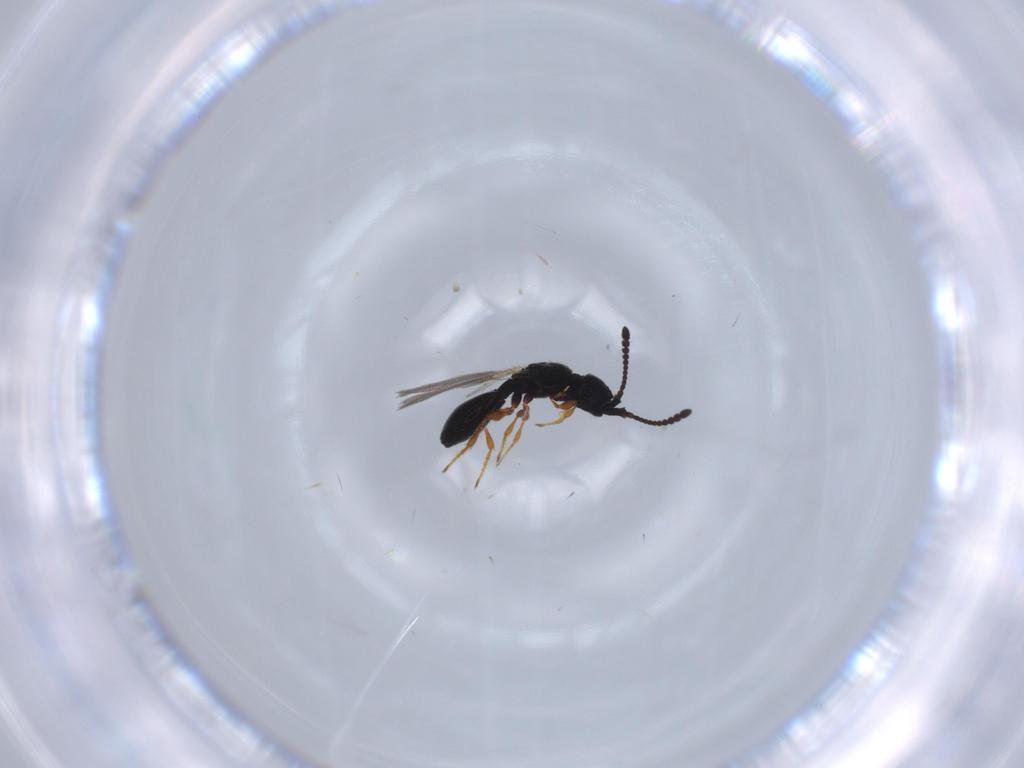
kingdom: Animalia
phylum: Arthropoda
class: Insecta
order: Hymenoptera
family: Diapriidae
